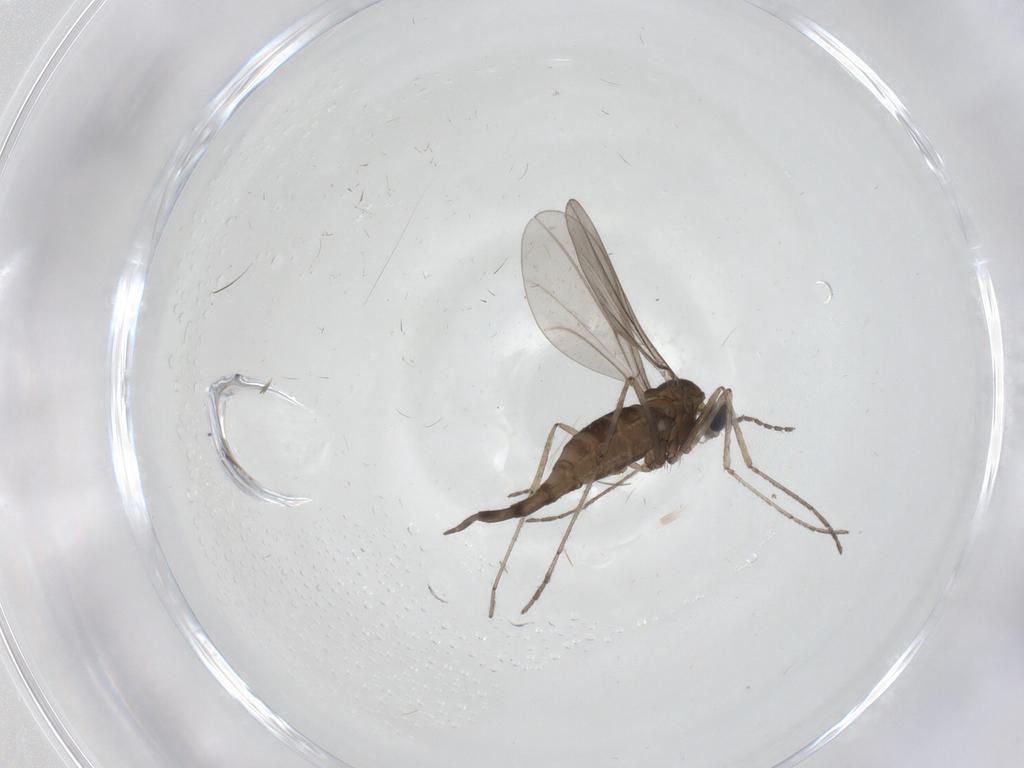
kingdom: Animalia
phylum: Arthropoda
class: Insecta
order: Diptera
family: Cecidomyiidae
